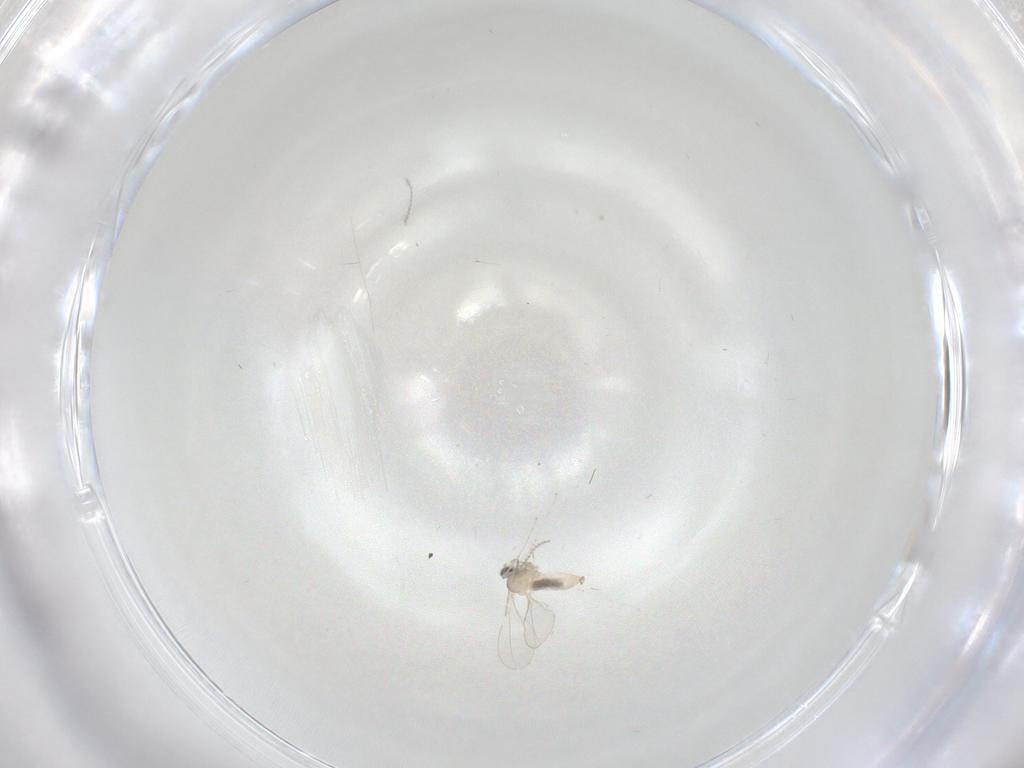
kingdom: Animalia
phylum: Arthropoda
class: Insecta
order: Diptera
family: Cecidomyiidae
